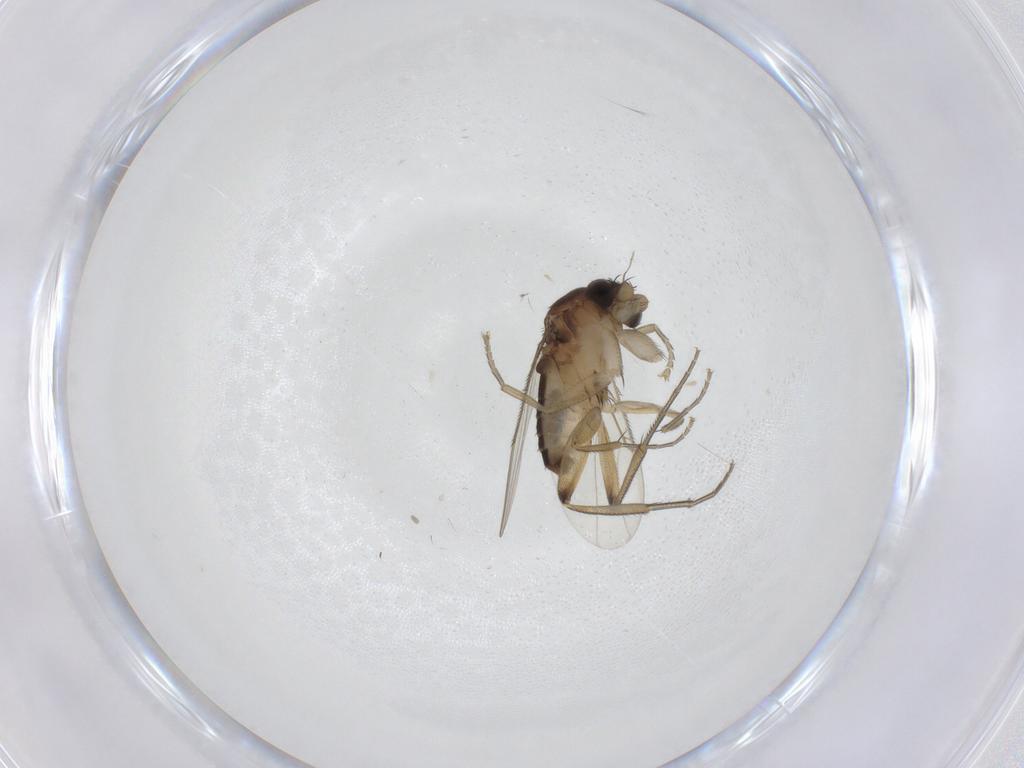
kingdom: Animalia
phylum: Arthropoda
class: Insecta
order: Diptera
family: Phoridae
